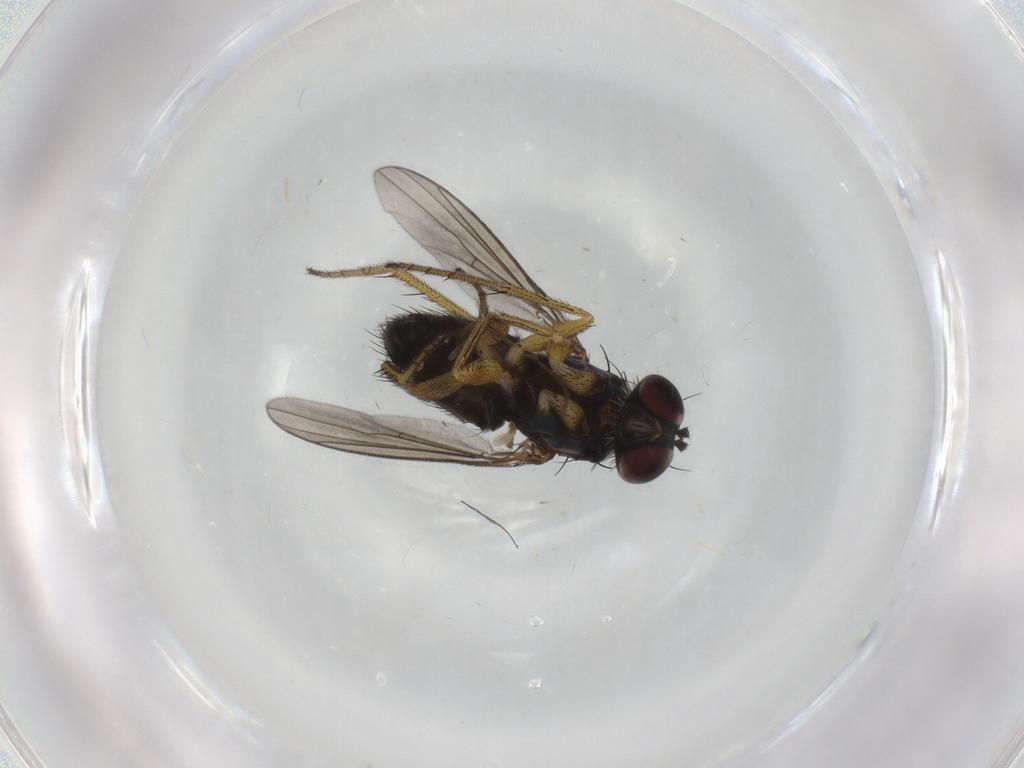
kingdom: Animalia
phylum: Arthropoda
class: Insecta
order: Diptera
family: Dolichopodidae
